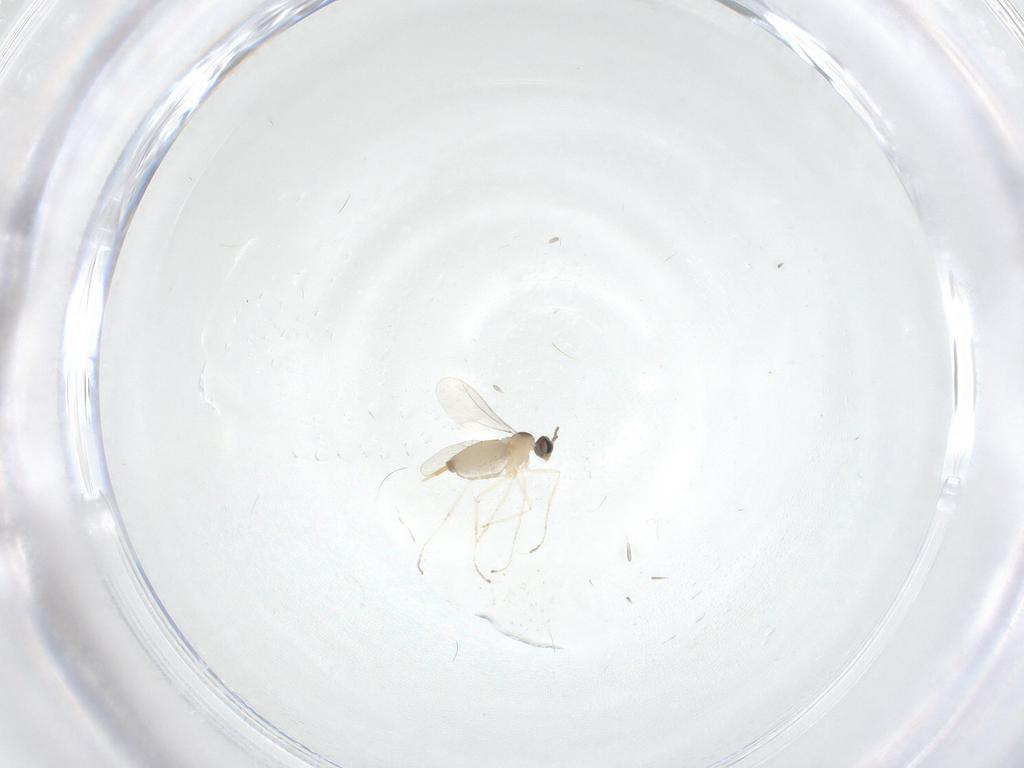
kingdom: Animalia
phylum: Arthropoda
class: Insecta
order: Diptera
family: Cecidomyiidae
